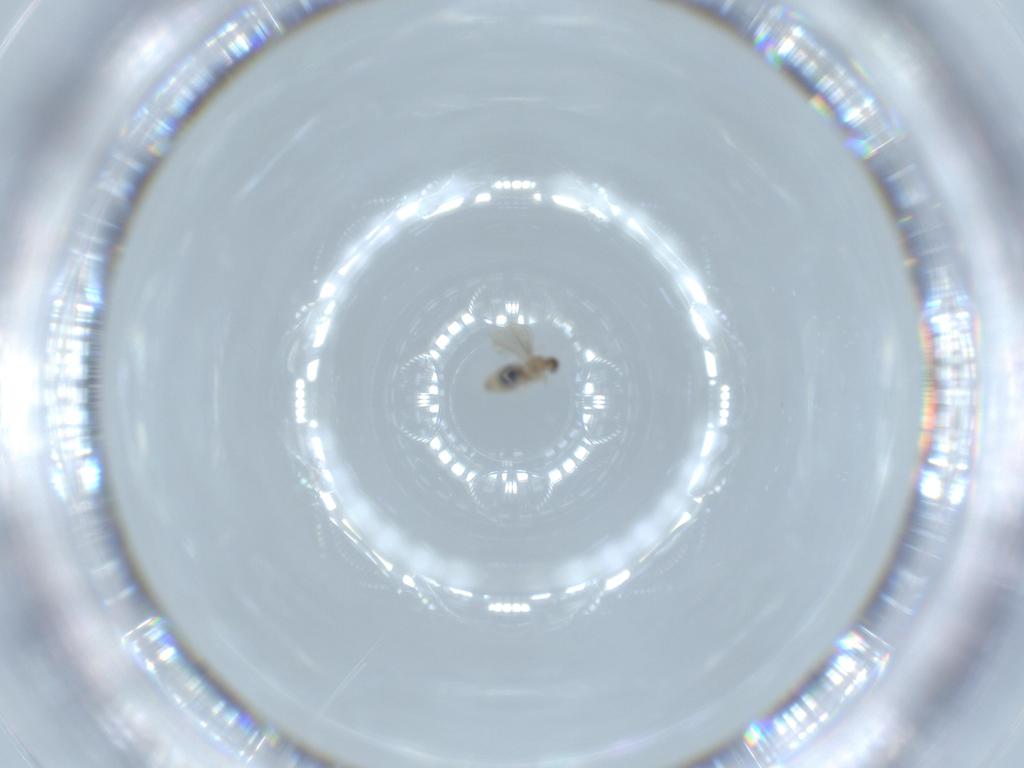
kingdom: Animalia
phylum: Arthropoda
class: Insecta
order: Diptera
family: Cecidomyiidae
